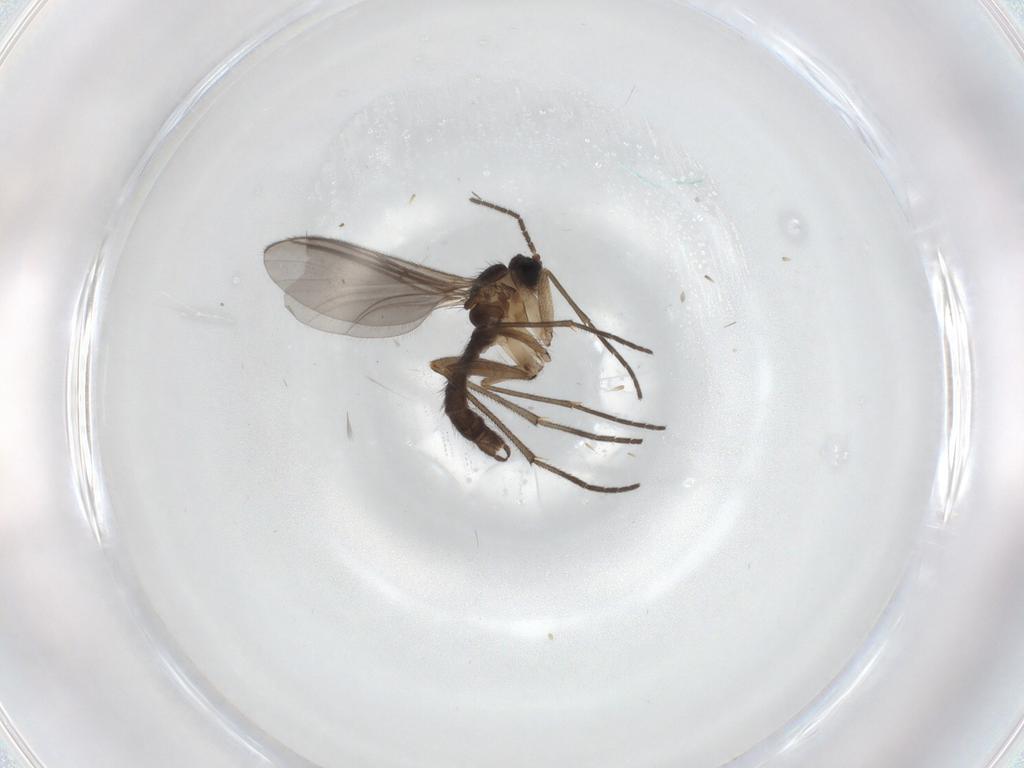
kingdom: Animalia
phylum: Arthropoda
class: Insecta
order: Diptera
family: Sciaridae
